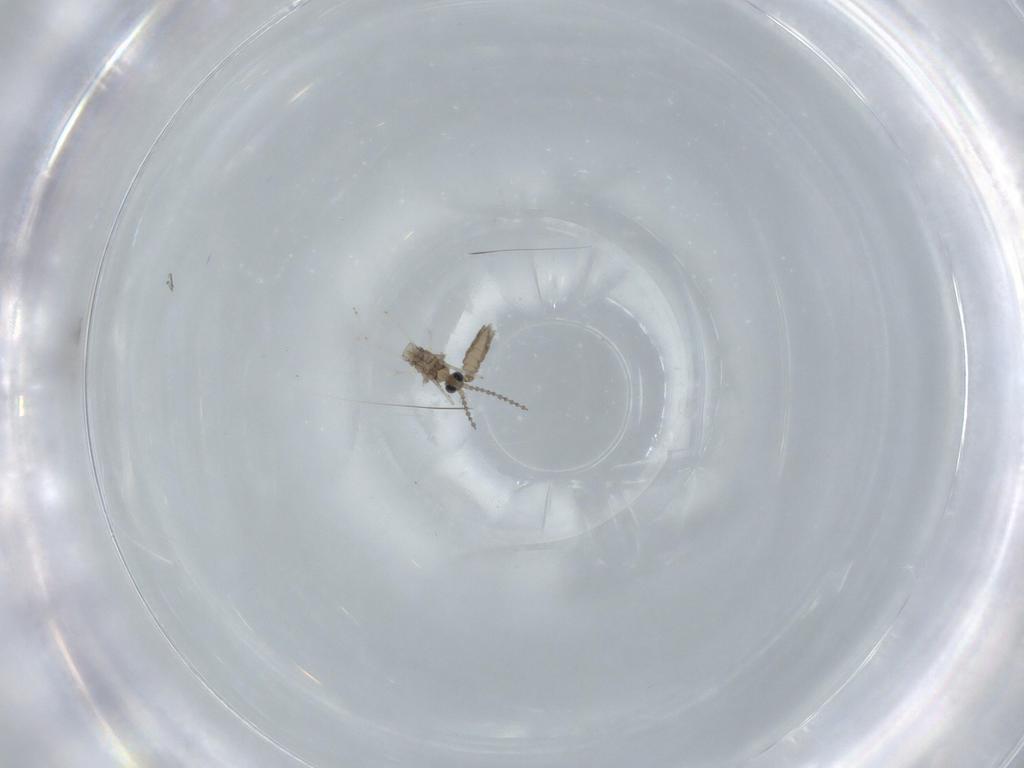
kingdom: Animalia
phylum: Arthropoda
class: Insecta
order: Diptera
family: Cecidomyiidae
